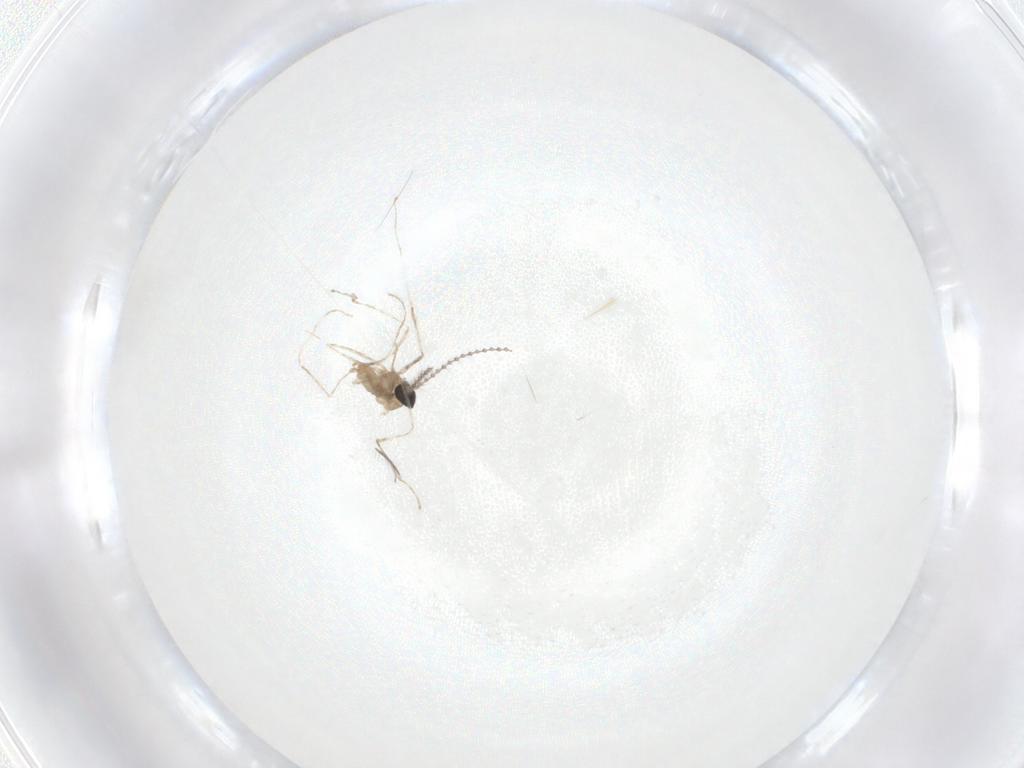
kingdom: Animalia
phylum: Arthropoda
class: Insecta
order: Diptera
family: Cecidomyiidae
